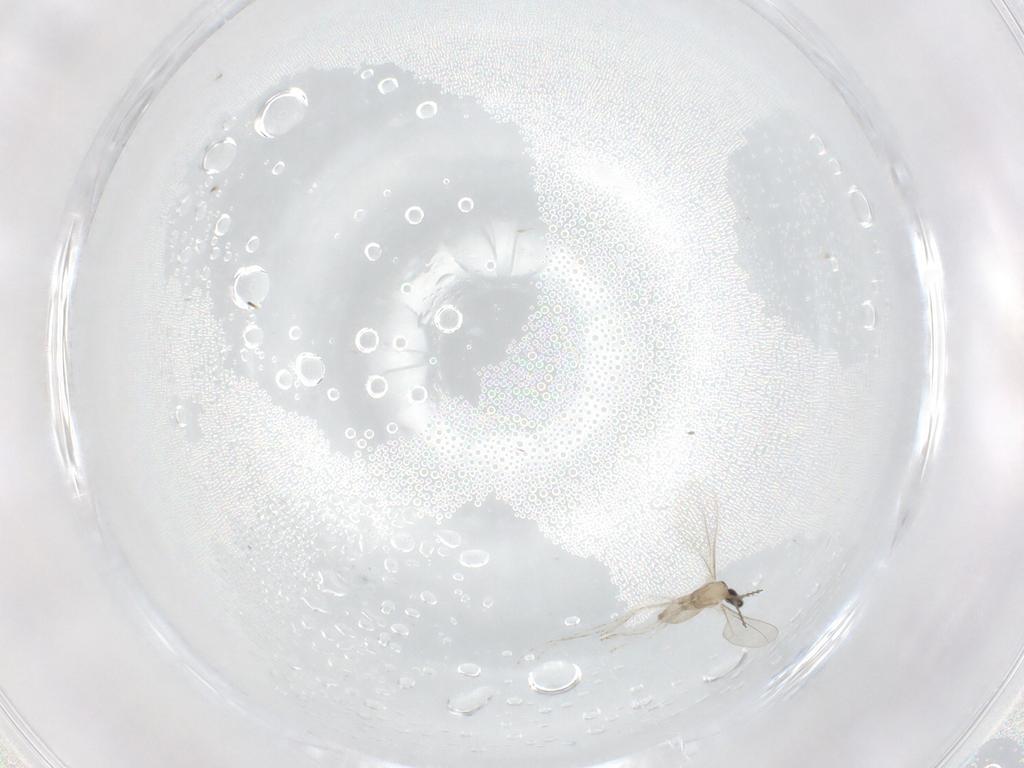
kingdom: Animalia
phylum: Arthropoda
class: Insecta
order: Diptera
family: Cecidomyiidae
